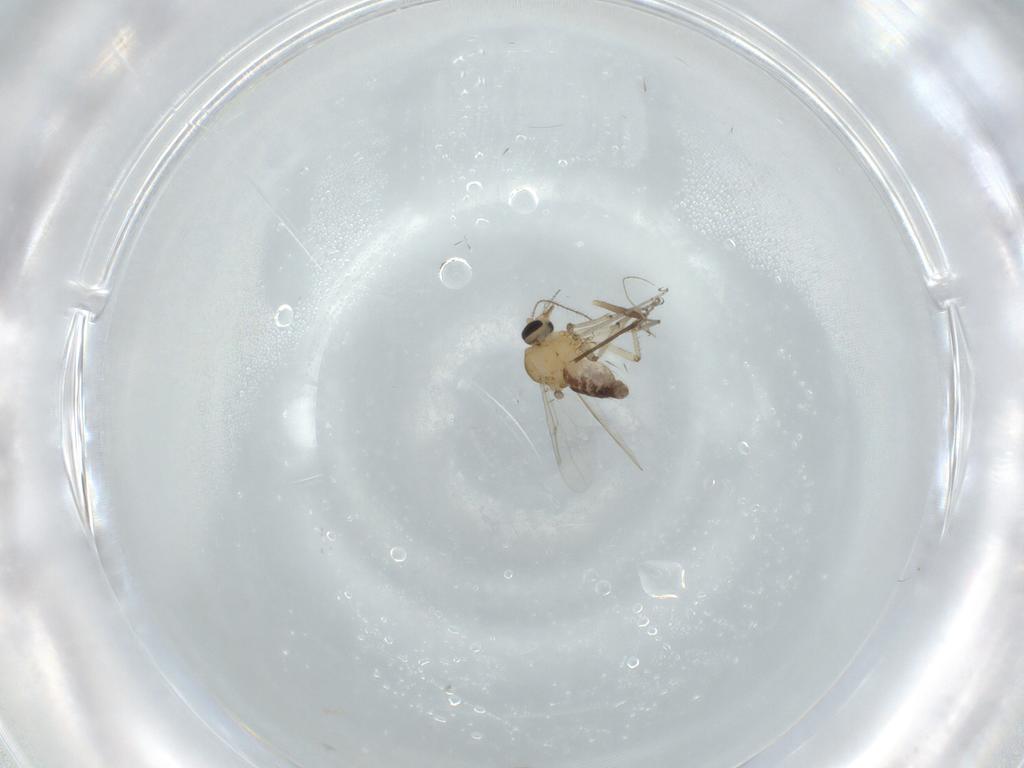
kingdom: Animalia
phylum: Arthropoda
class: Insecta
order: Diptera
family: Ceratopogonidae
